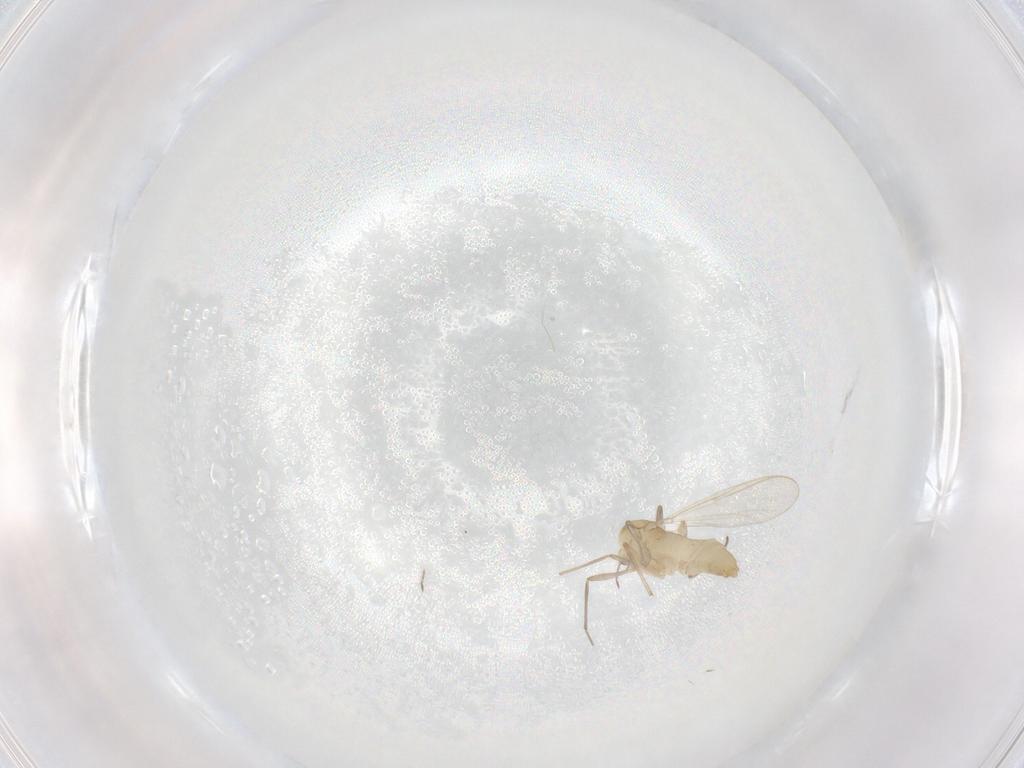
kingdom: Animalia
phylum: Arthropoda
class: Insecta
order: Diptera
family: Chironomidae
